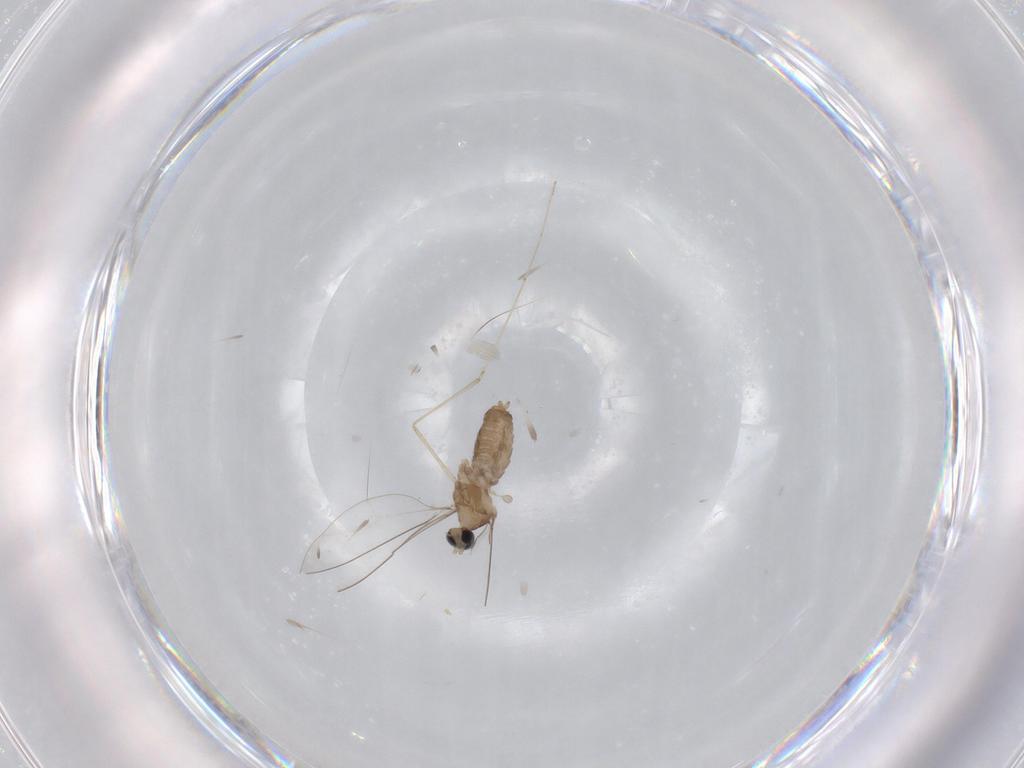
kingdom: Animalia
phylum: Arthropoda
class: Insecta
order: Diptera
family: Cecidomyiidae
